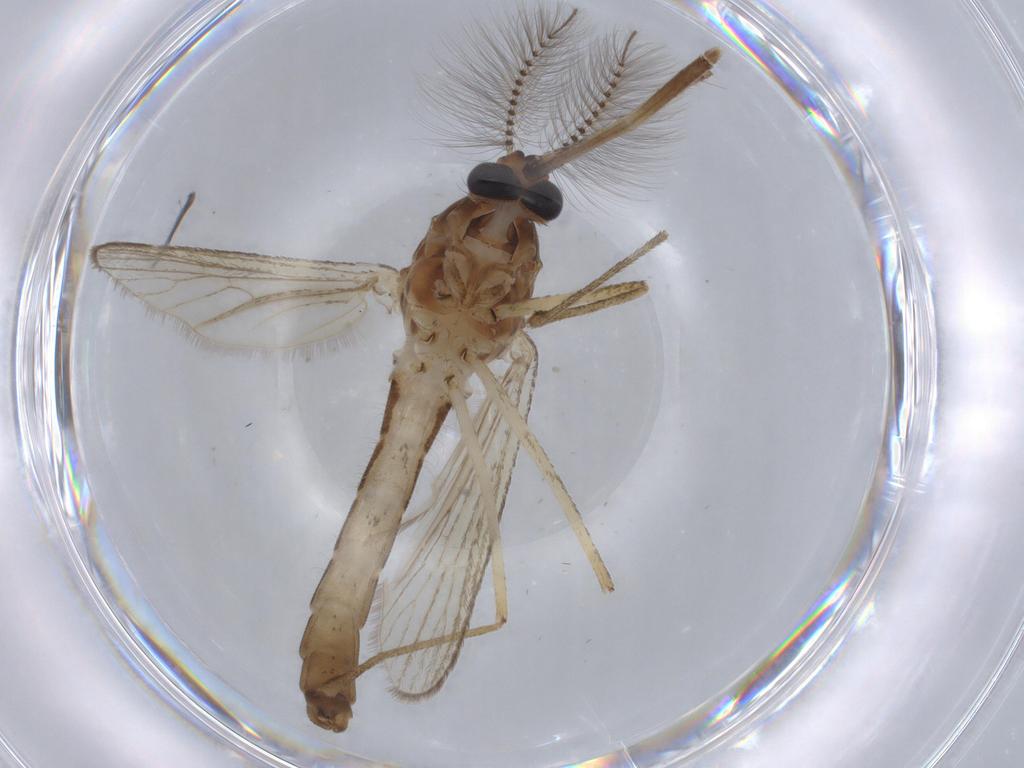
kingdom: Animalia
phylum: Arthropoda
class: Insecta
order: Diptera
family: Culicidae
